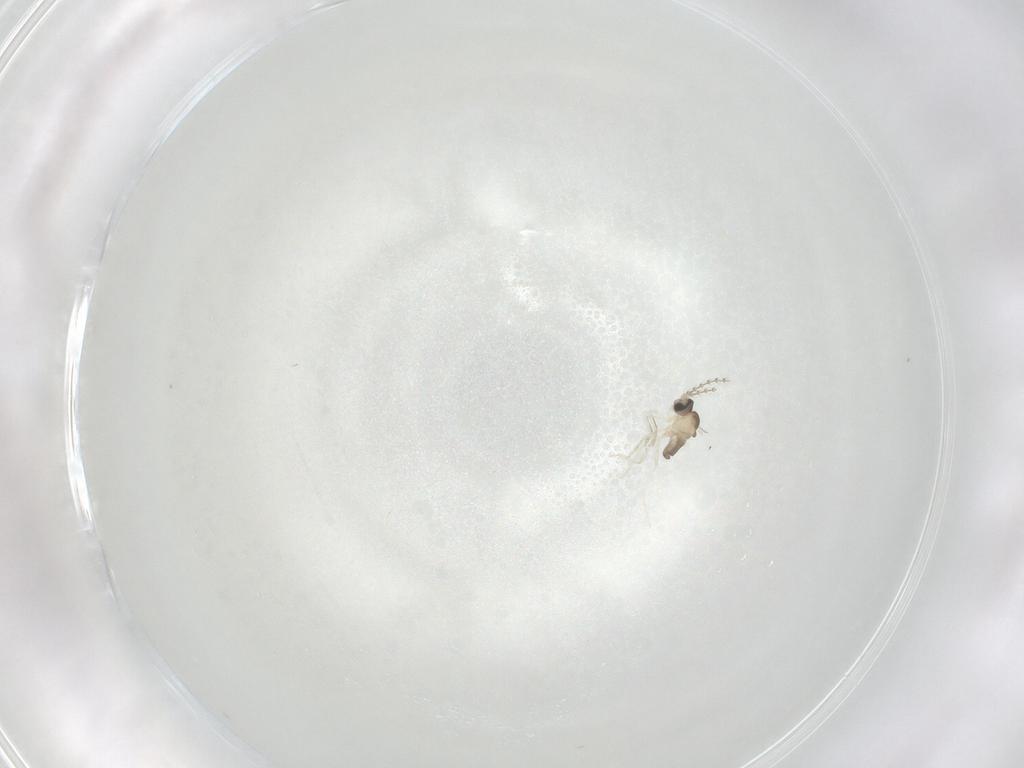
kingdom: Animalia
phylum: Arthropoda
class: Insecta
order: Diptera
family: Cecidomyiidae
